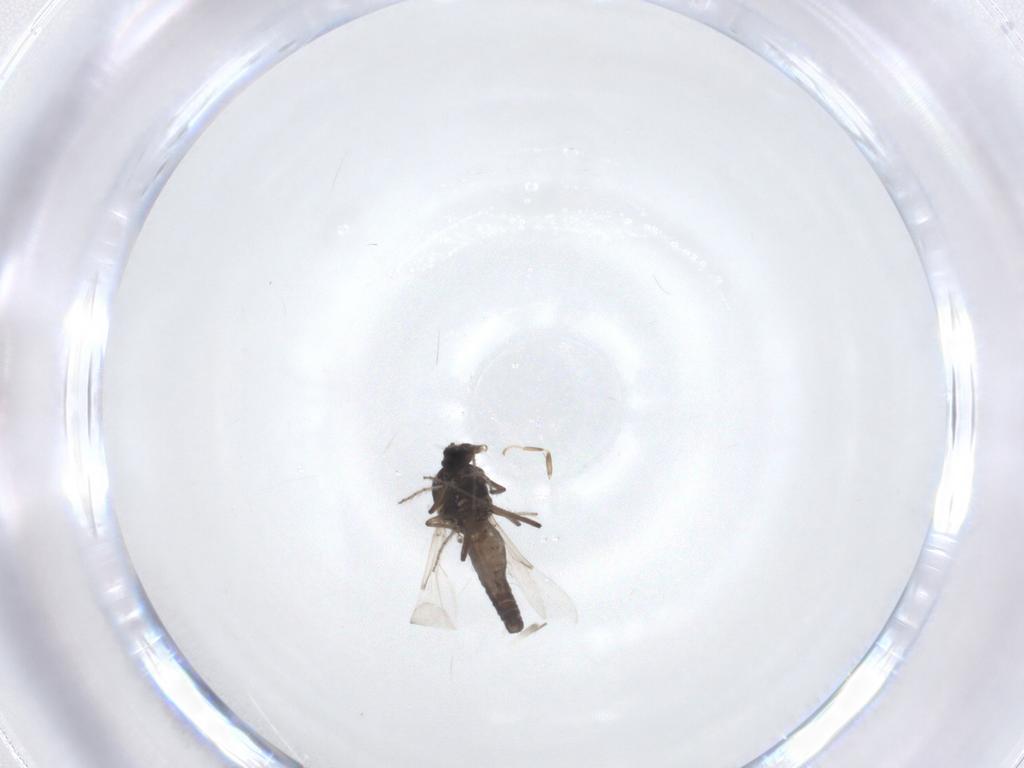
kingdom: Animalia
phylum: Arthropoda
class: Insecta
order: Diptera
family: Ceratopogonidae
